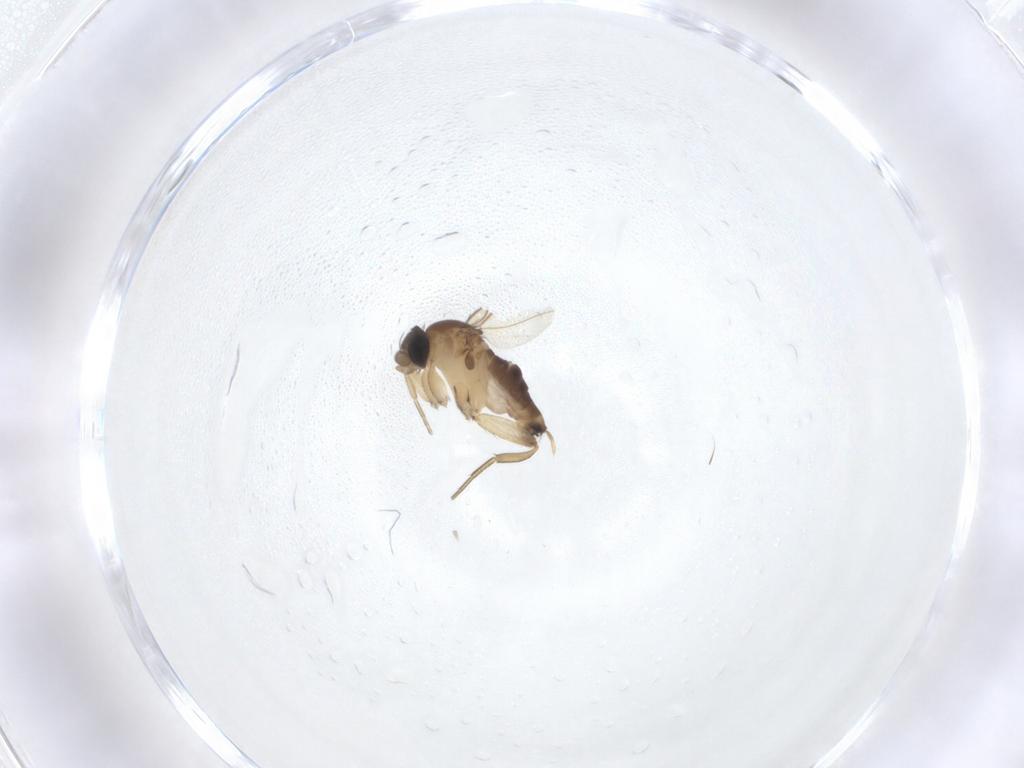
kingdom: Animalia
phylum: Arthropoda
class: Insecta
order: Diptera
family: Phoridae
